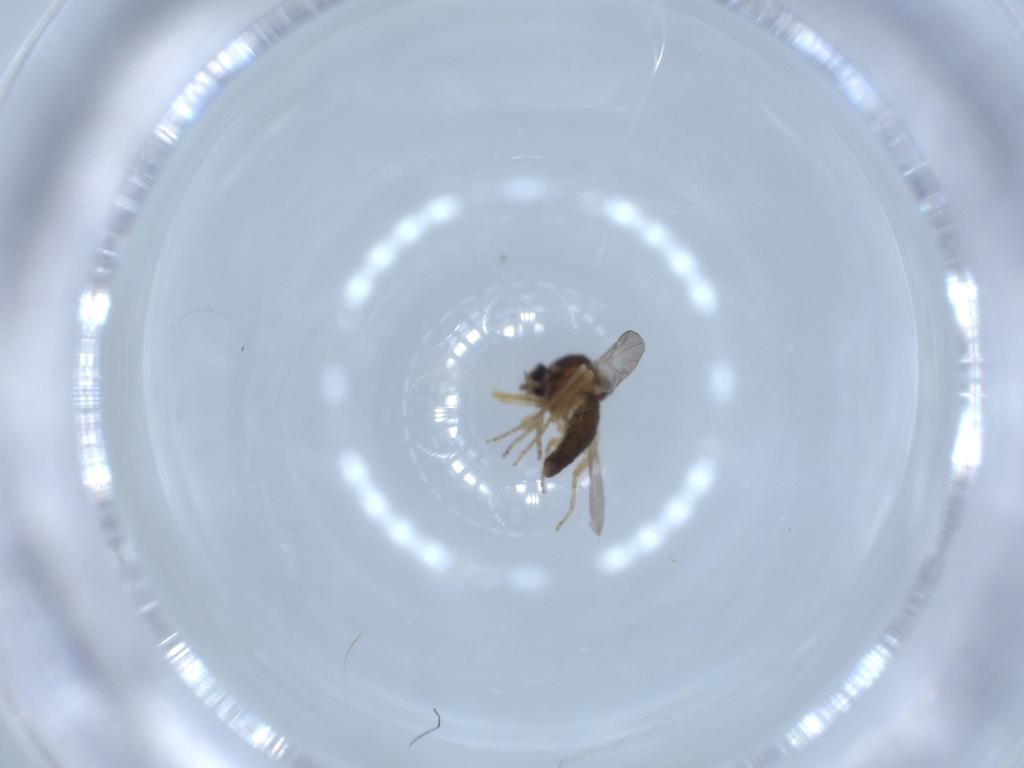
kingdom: Animalia
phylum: Arthropoda
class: Insecta
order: Diptera
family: Sciaridae
